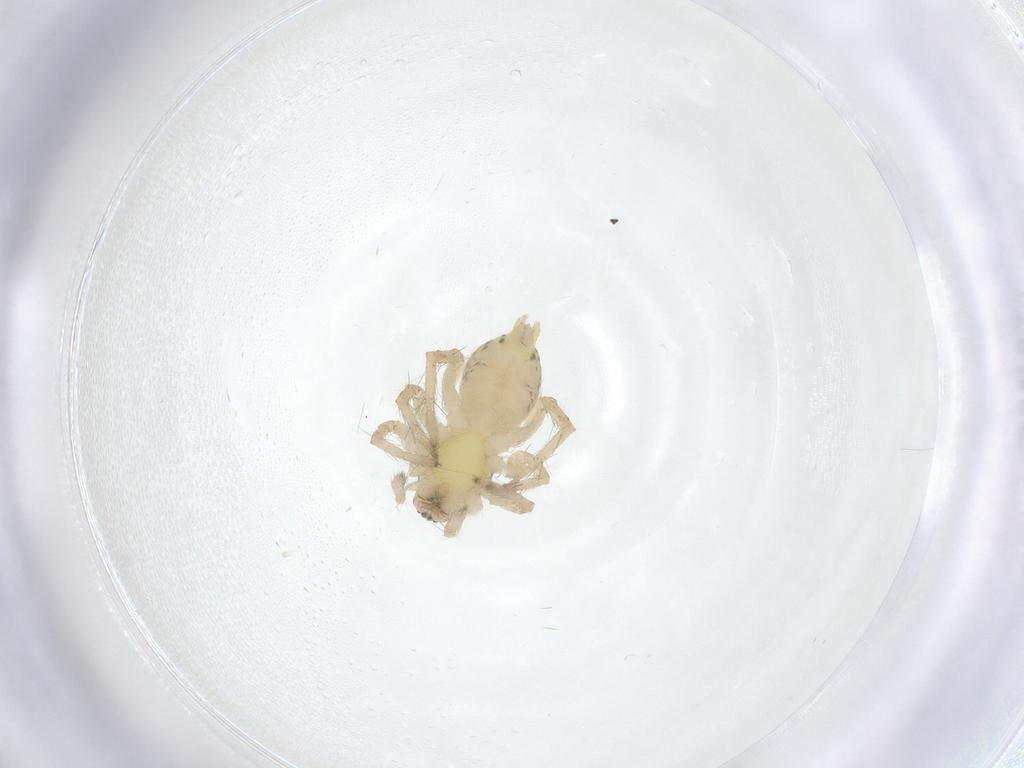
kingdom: Animalia
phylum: Arthropoda
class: Arachnida
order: Araneae
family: Anyphaenidae
